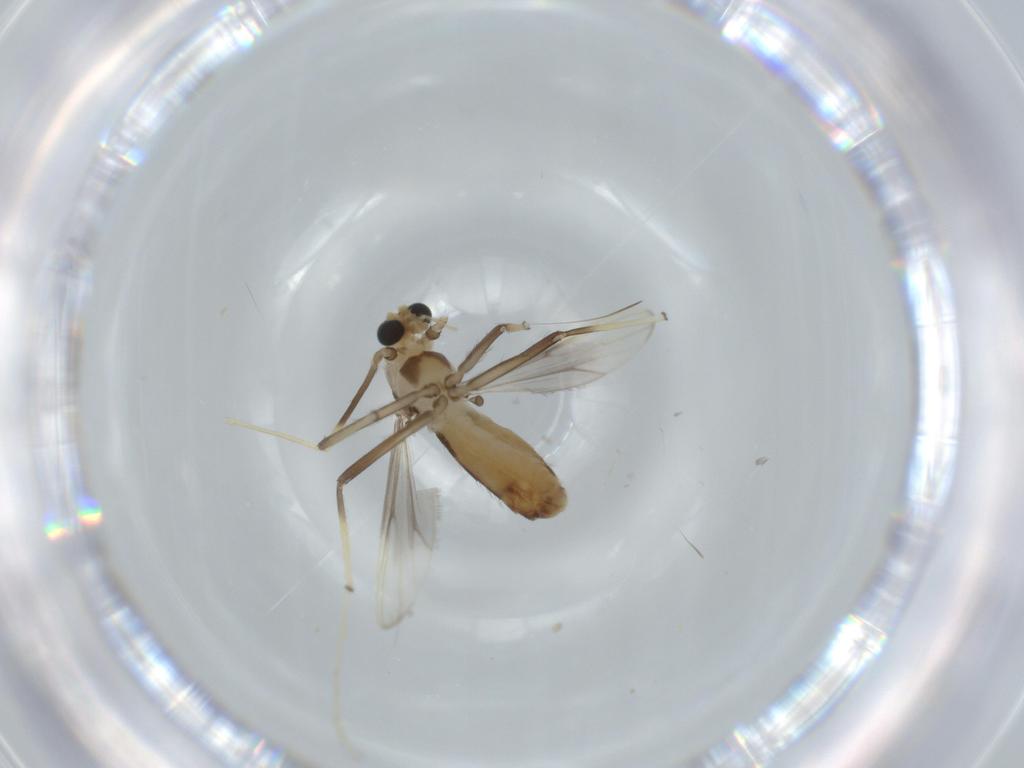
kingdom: Animalia
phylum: Arthropoda
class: Insecta
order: Diptera
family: Chironomidae
